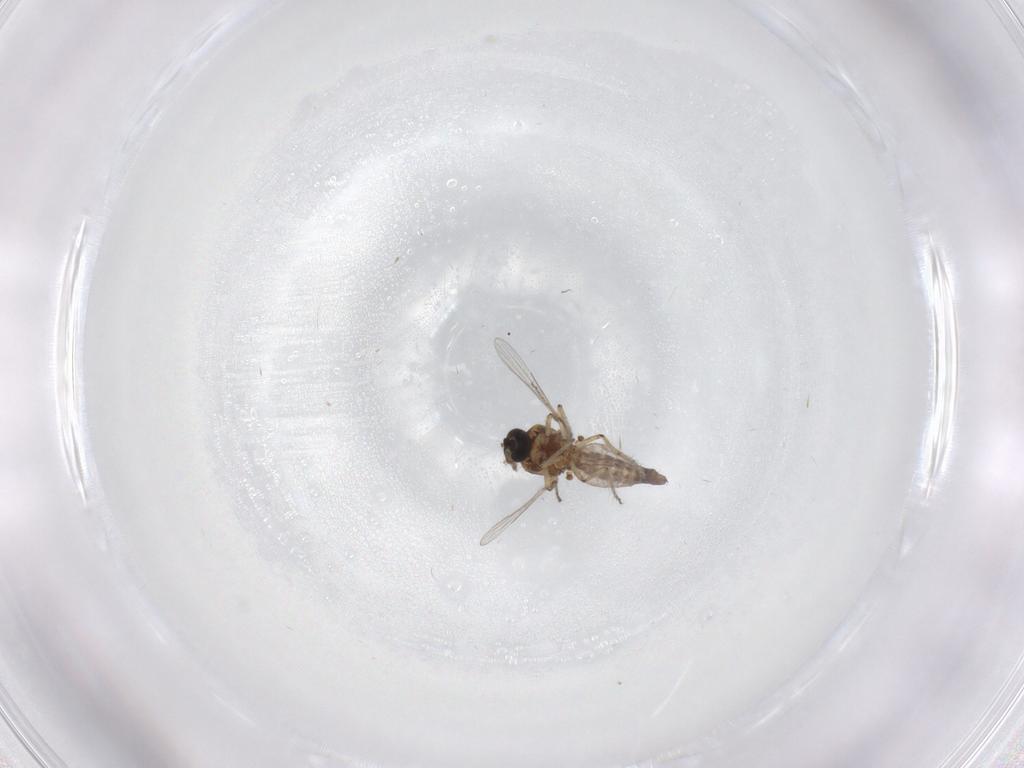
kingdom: Animalia
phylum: Arthropoda
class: Insecta
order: Diptera
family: Ceratopogonidae
